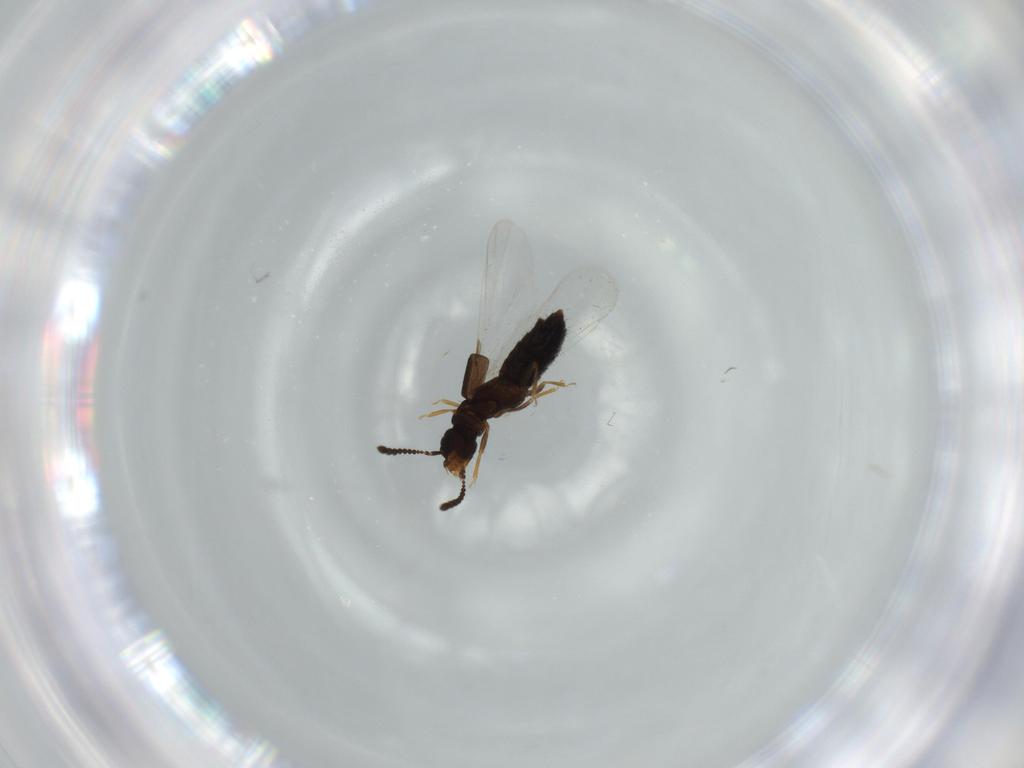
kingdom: Animalia
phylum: Arthropoda
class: Insecta
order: Coleoptera
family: Staphylinidae
